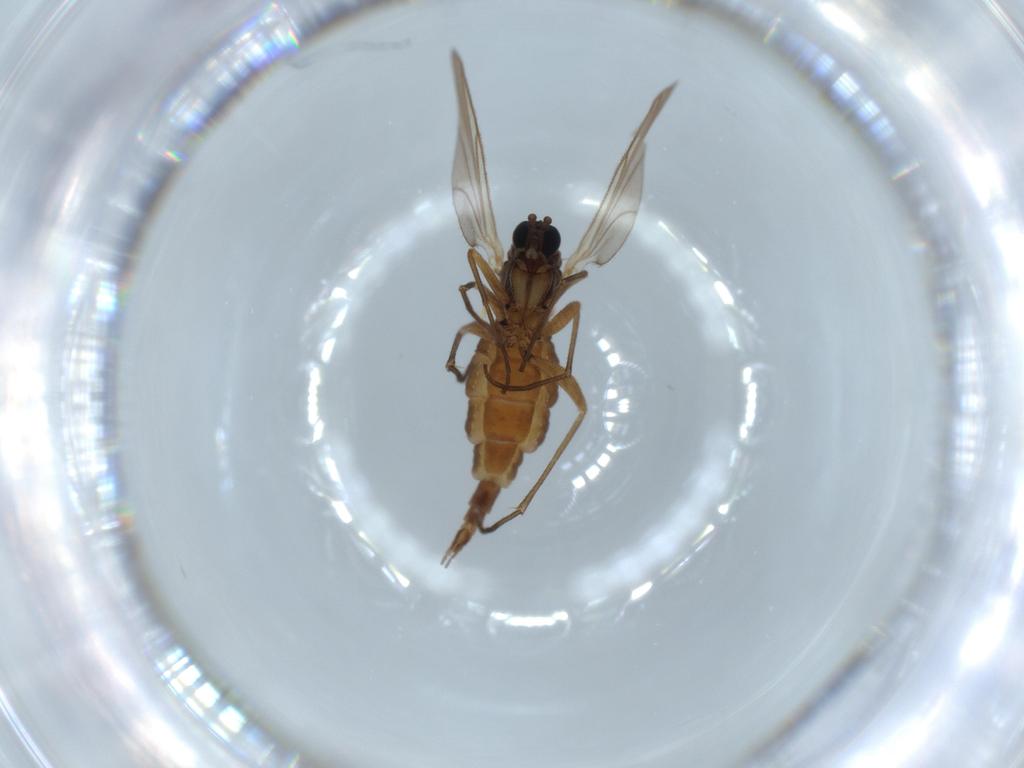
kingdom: Animalia
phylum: Arthropoda
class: Insecta
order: Diptera
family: Sciaridae
